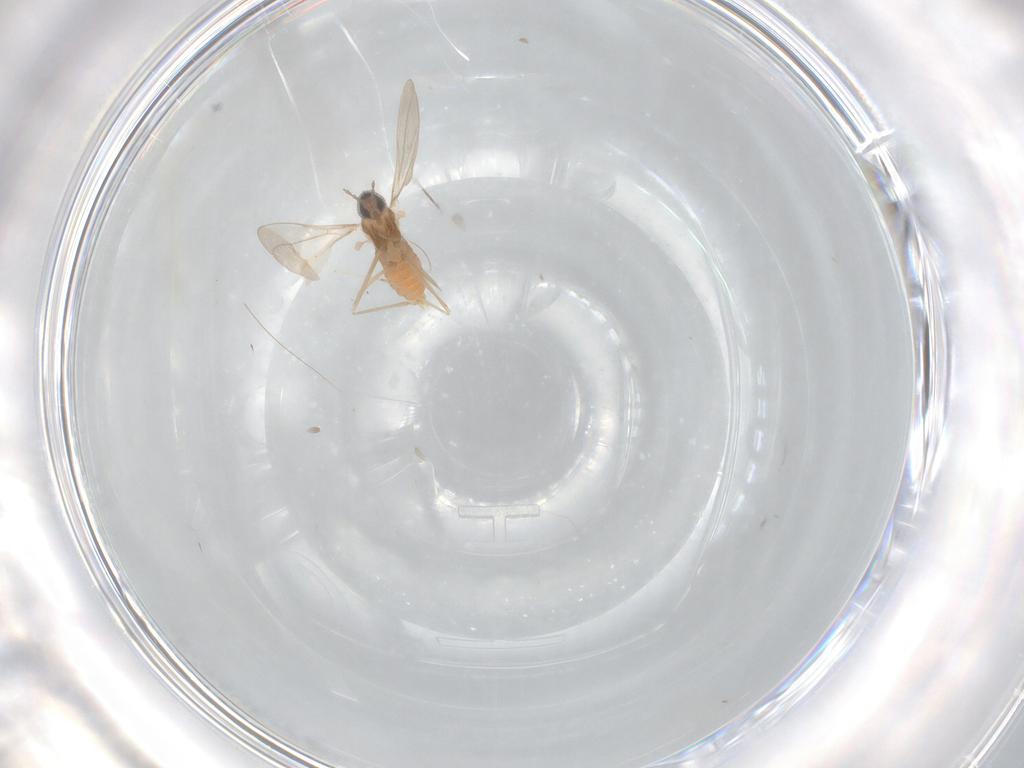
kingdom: Animalia
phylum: Arthropoda
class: Insecta
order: Diptera
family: Cecidomyiidae
